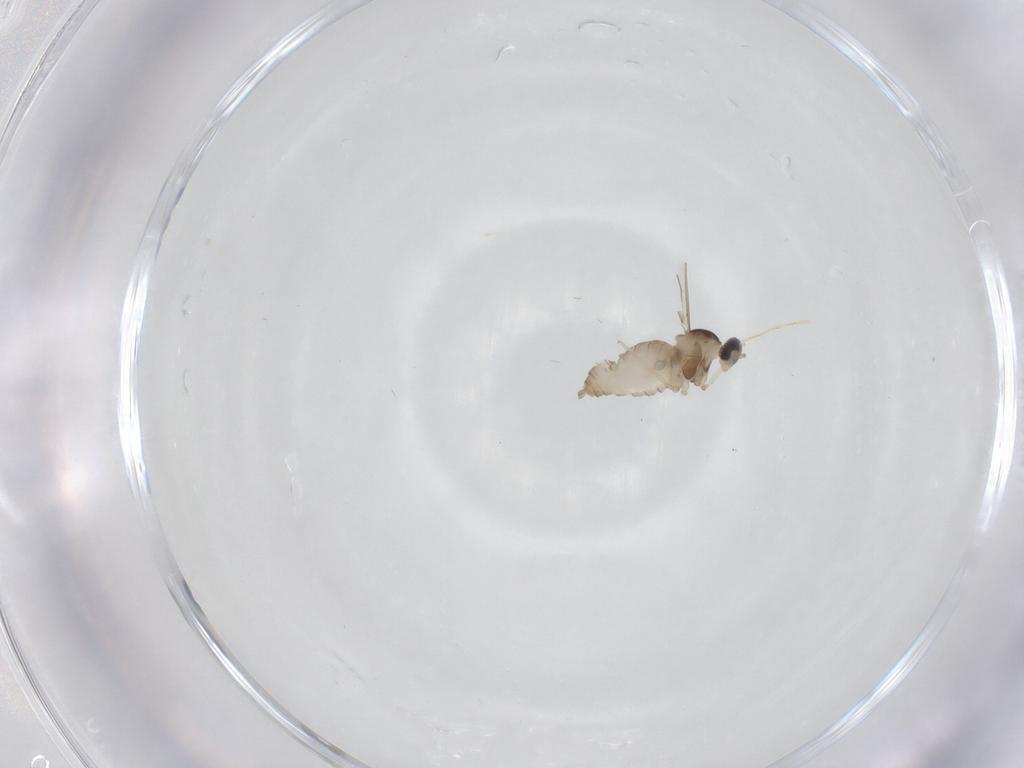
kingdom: Animalia
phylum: Arthropoda
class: Insecta
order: Diptera
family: Cecidomyiidae
